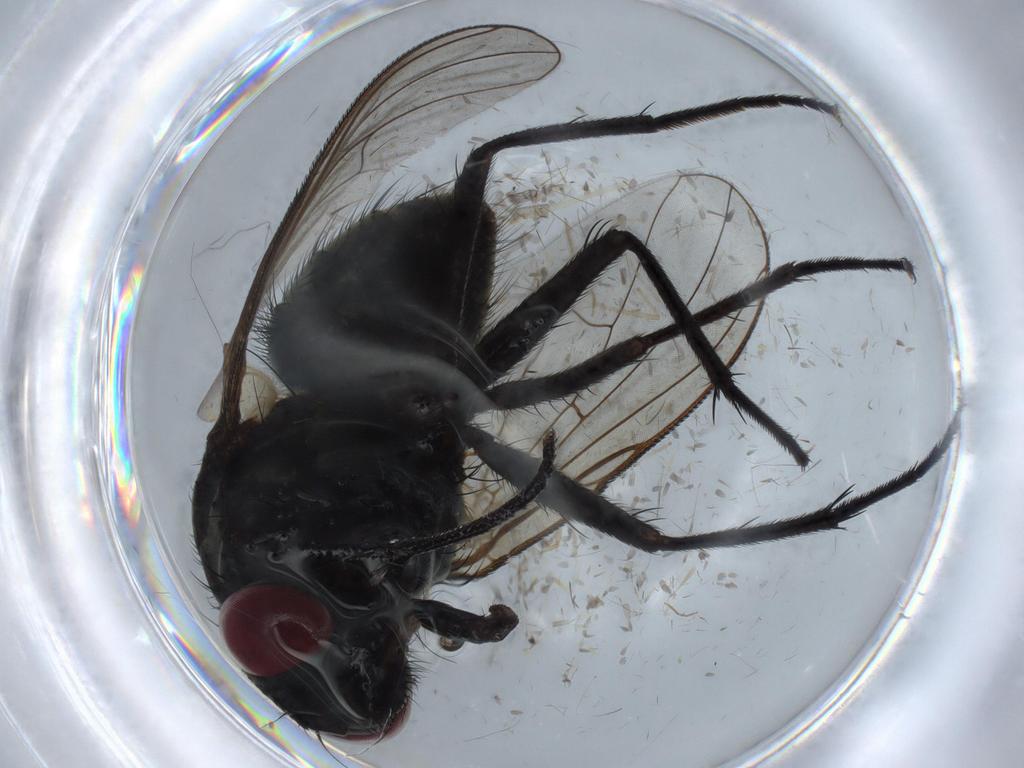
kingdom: Animalia
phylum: Arthropoda
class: Insecta
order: Diptera
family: Muscidae
